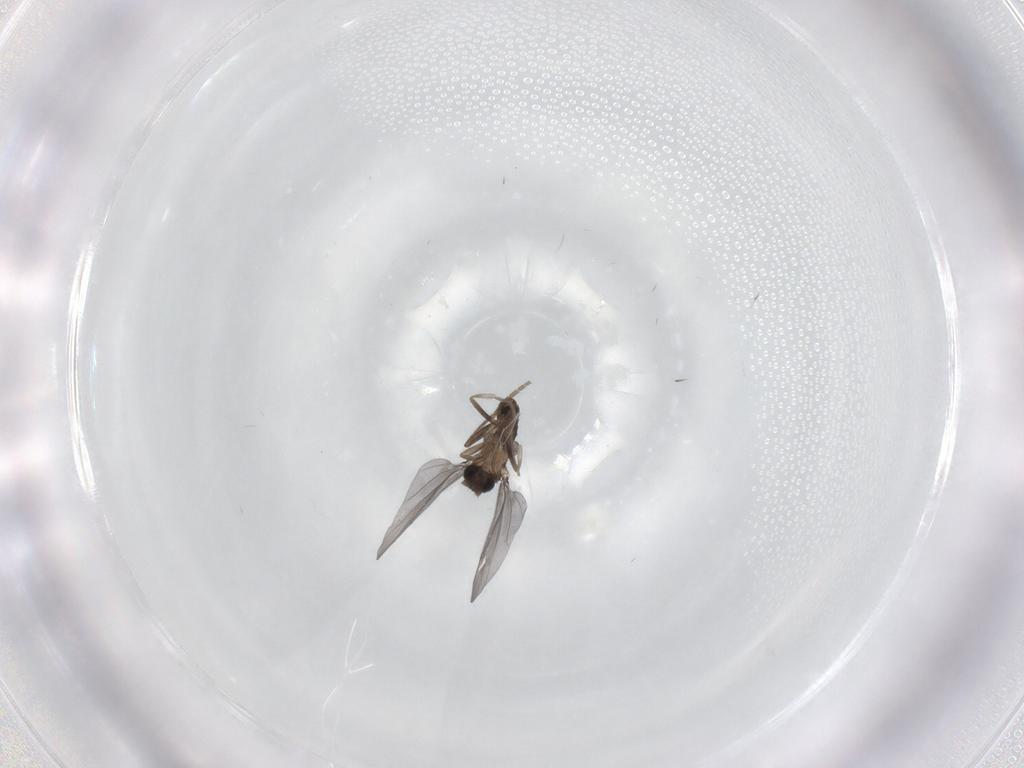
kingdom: Animalia
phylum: Arthropoda
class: Insecta
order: Diptera
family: Phoridae
